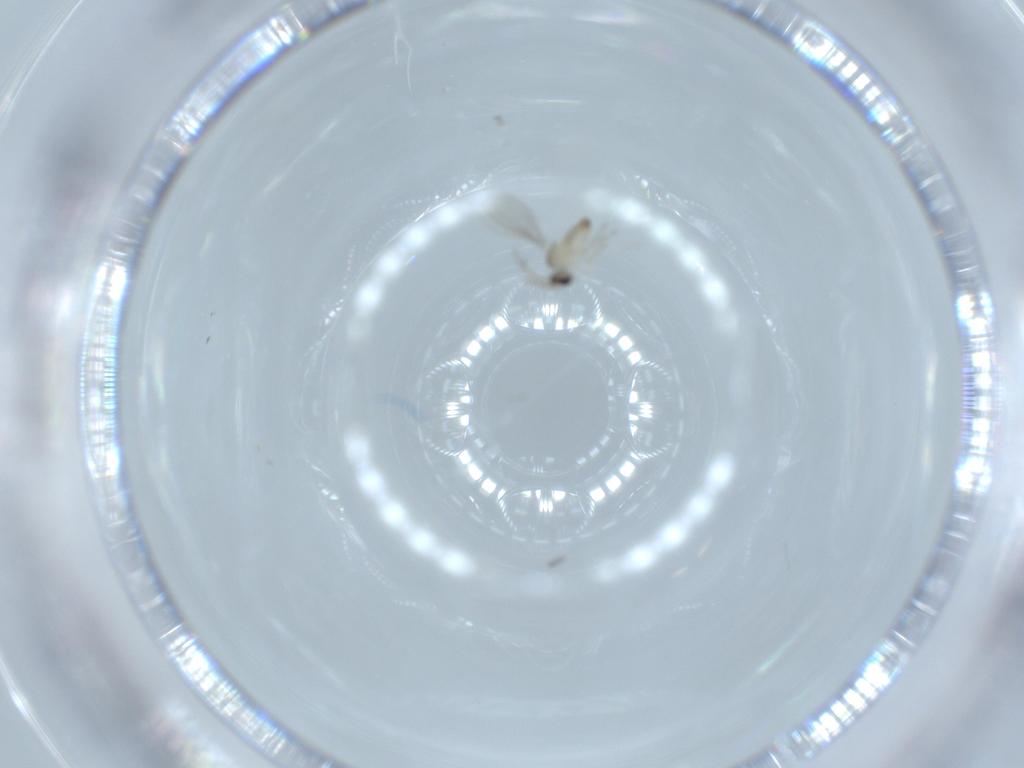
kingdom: Animalia
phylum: Arthropoda
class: Insecta
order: Diptera
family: Cecidomyiidae
